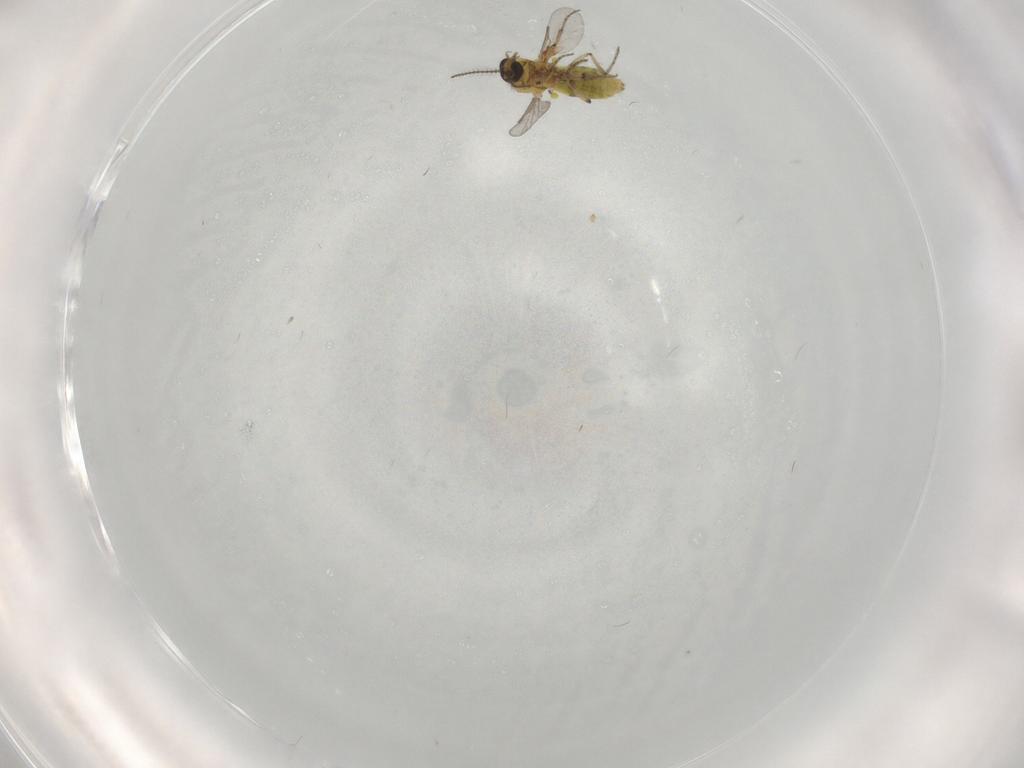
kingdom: Animalia
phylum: Arthropoda
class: Insecta
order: Diptera
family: Ceratopogonidae
